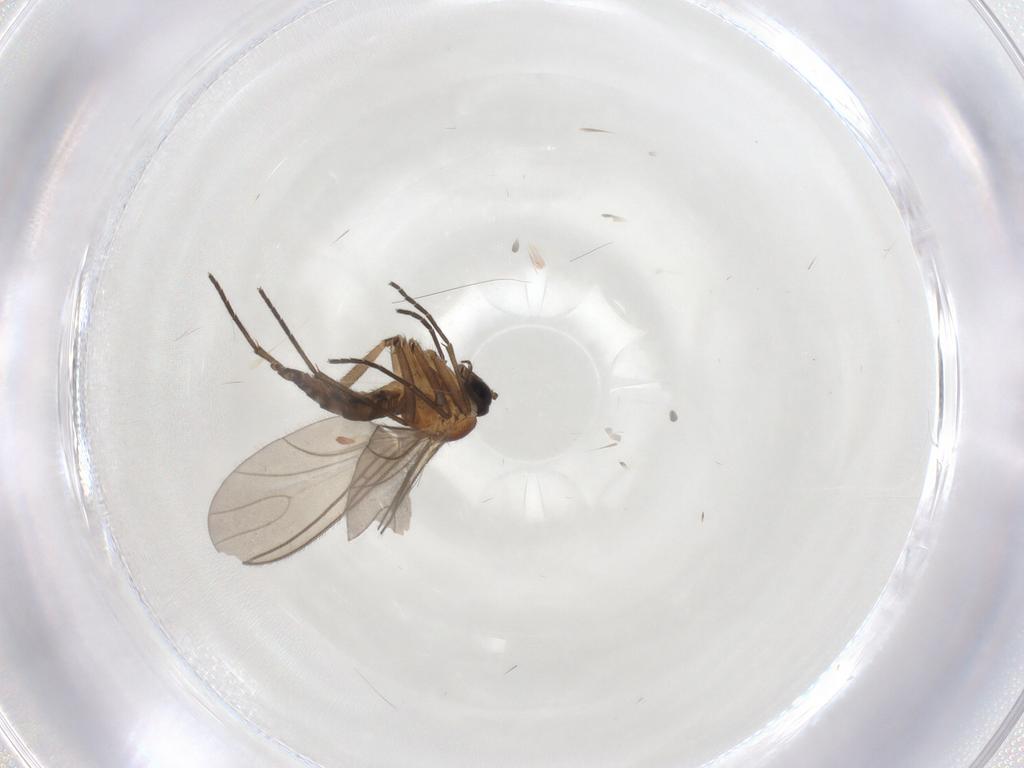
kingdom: Animalia
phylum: Arthropoda
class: Insecta
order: Diptera
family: Sciaridae
